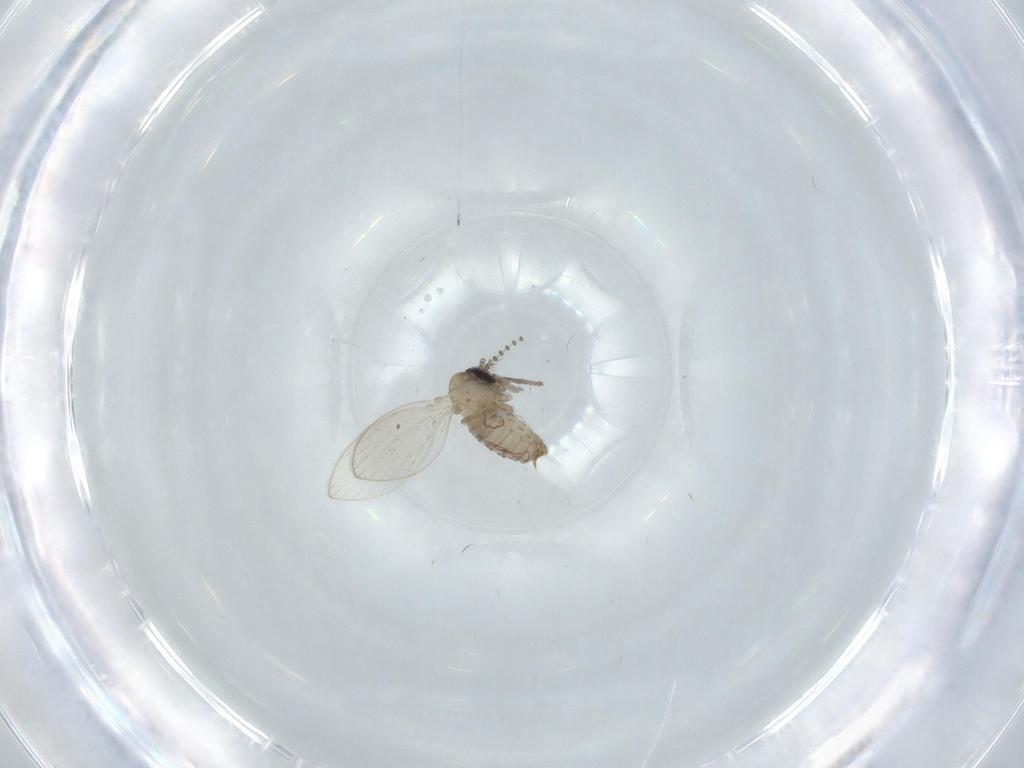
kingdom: Animalia
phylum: Arthropoda
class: Insecta
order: Diptera
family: Psychodidae
